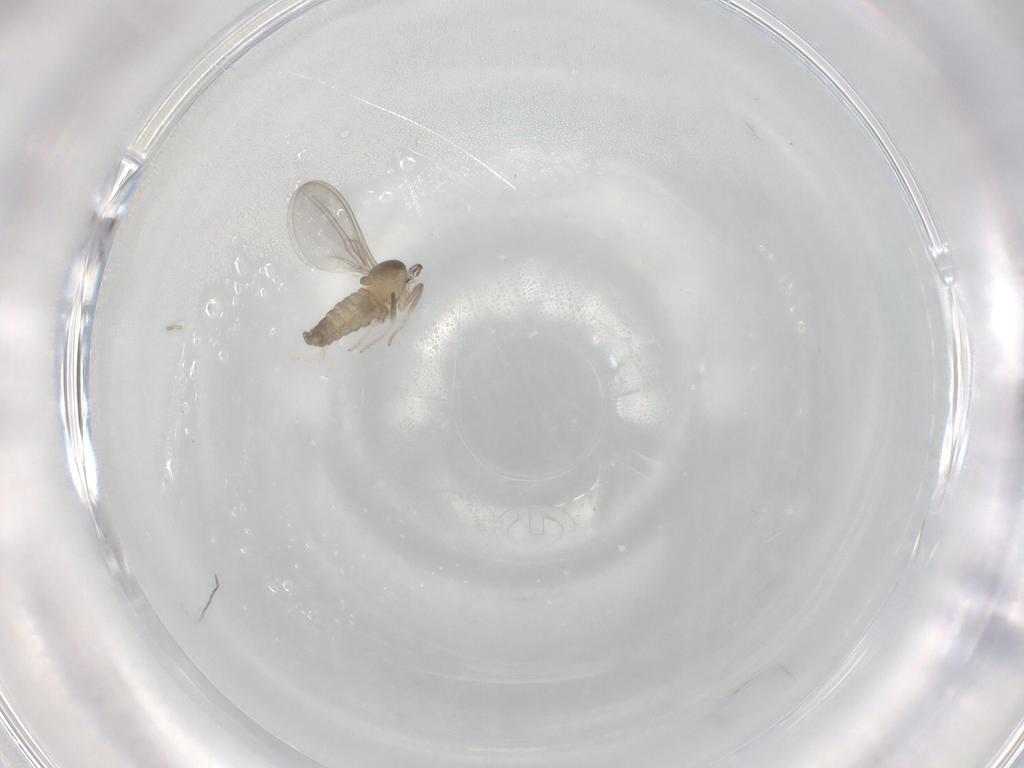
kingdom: Animalia
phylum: Arthropoda
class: Insecta
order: Diptera
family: Cecidomyiidae
